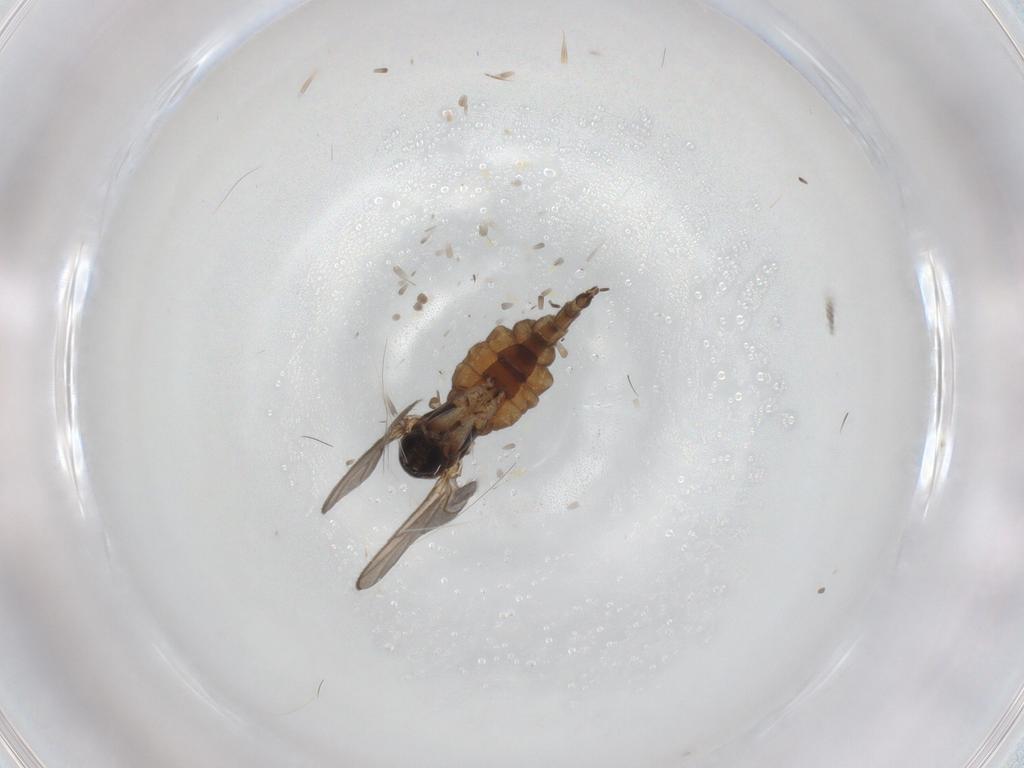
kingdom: Animalia
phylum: Arthropoda
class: Insecta
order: Diptera
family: Sciaridae
